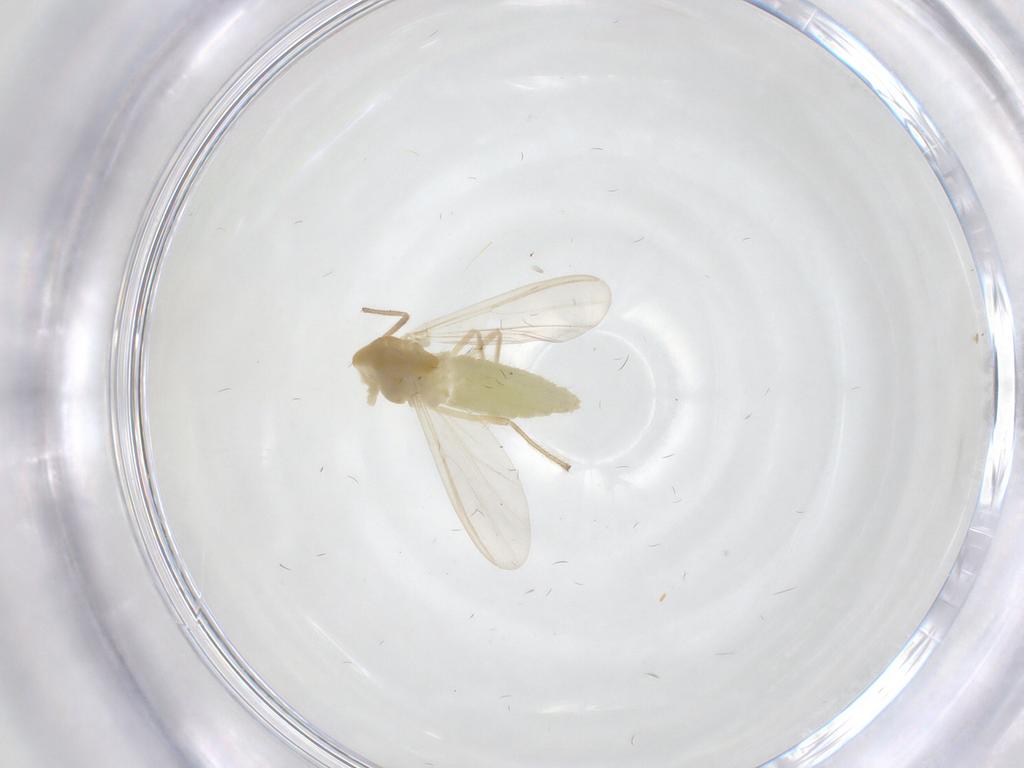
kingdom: Animalia
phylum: Arthropoda
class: Insecta
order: Diptera
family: Chironomidae
